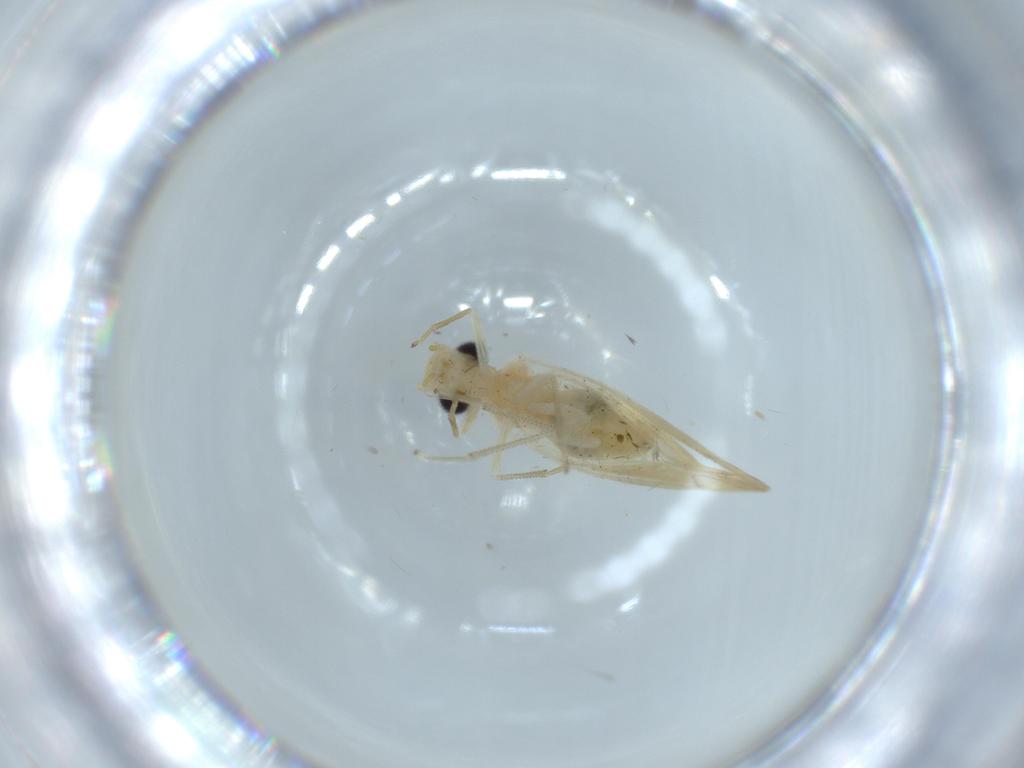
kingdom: Animalia
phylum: Arthropoda
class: Insecta
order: Psocodea
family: Caeciliusidae
